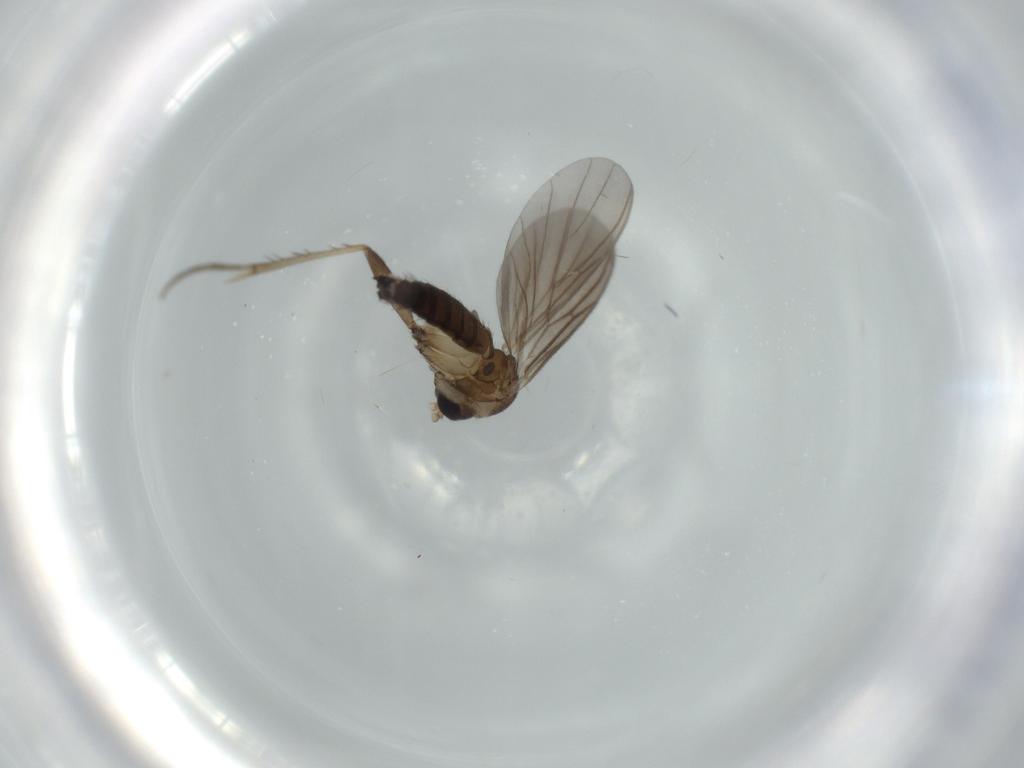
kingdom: Animalia
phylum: Arthropoda
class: Insecta
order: Diptera
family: Mycetophilidae
